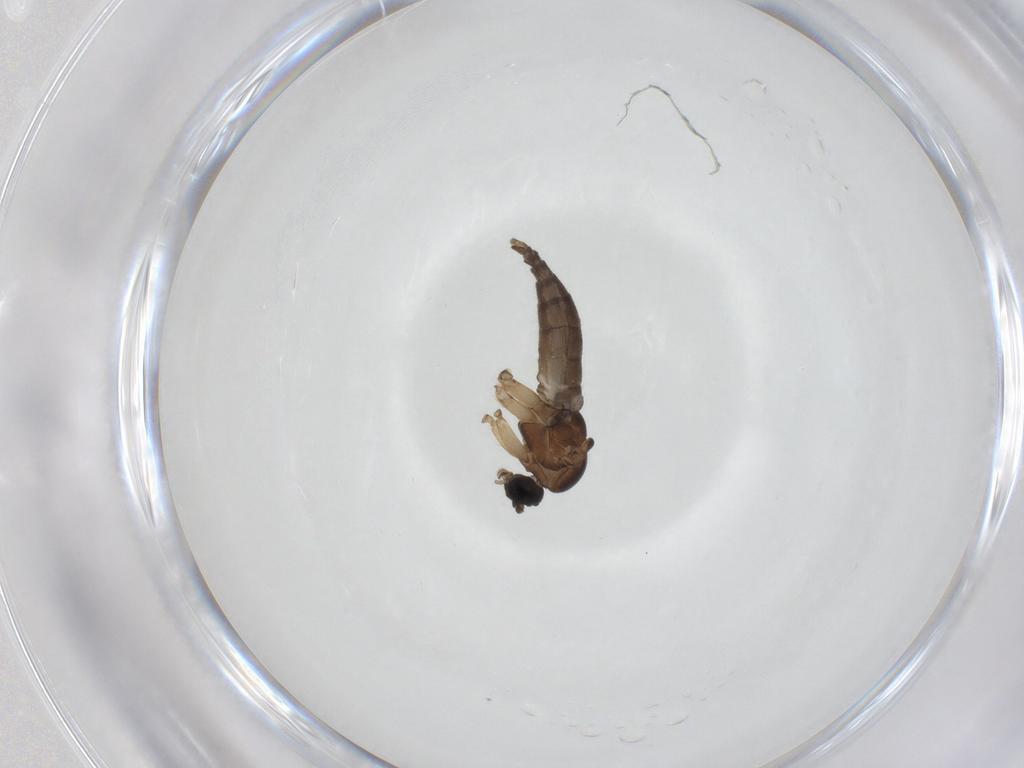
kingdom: Animalia
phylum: Arthropoda
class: Insecta
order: Diptera
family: Sciaridae
